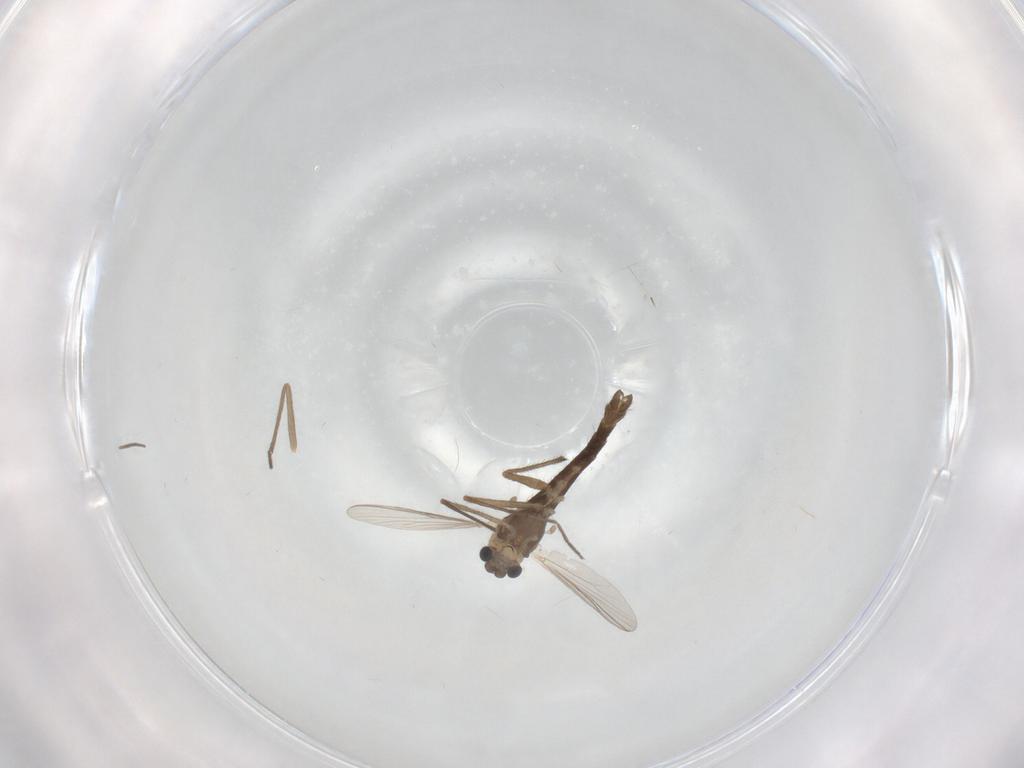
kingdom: Animalia
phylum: Arthropoda
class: Insecta
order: Diptera
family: Chironomidae
